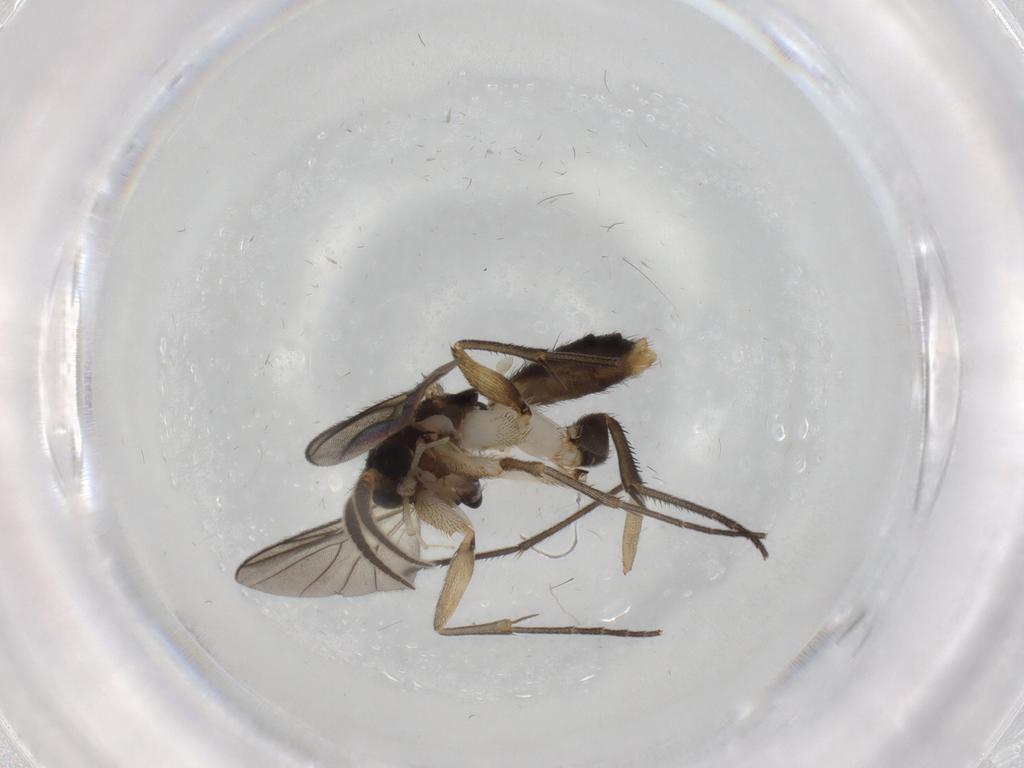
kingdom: Animalia
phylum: Arthropoda
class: Insecta
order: Diptera
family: Mycetophilidae
